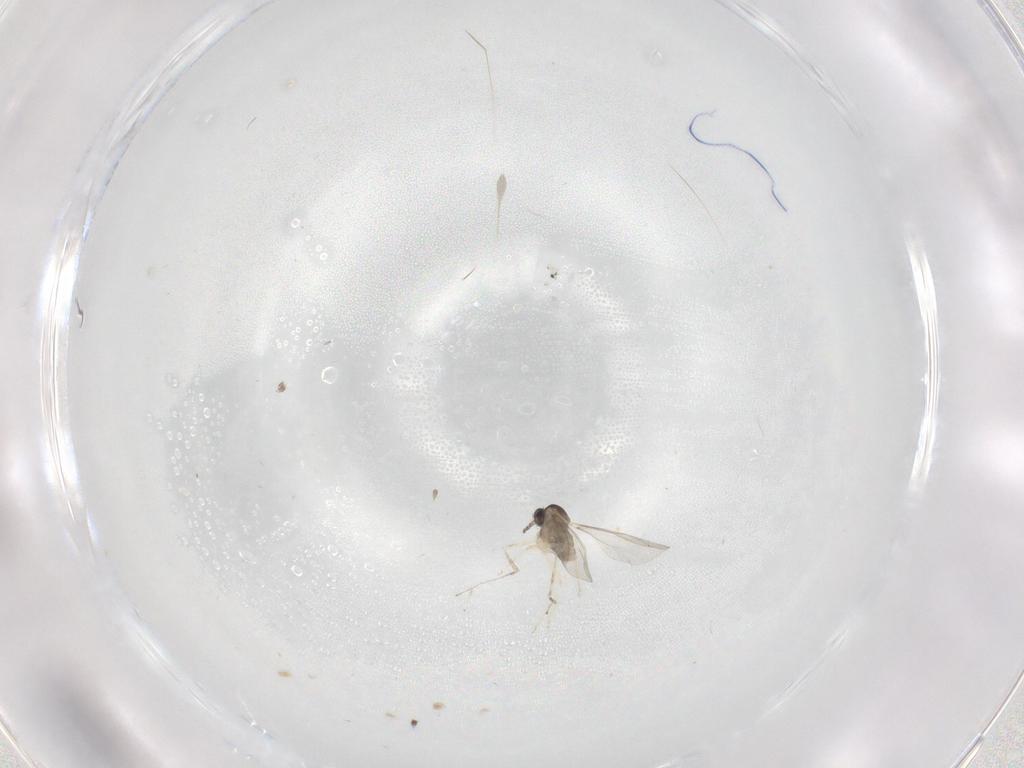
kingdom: Animalia
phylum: Arthropoda
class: Insecta
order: Diptera
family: Cecidomyiidae
